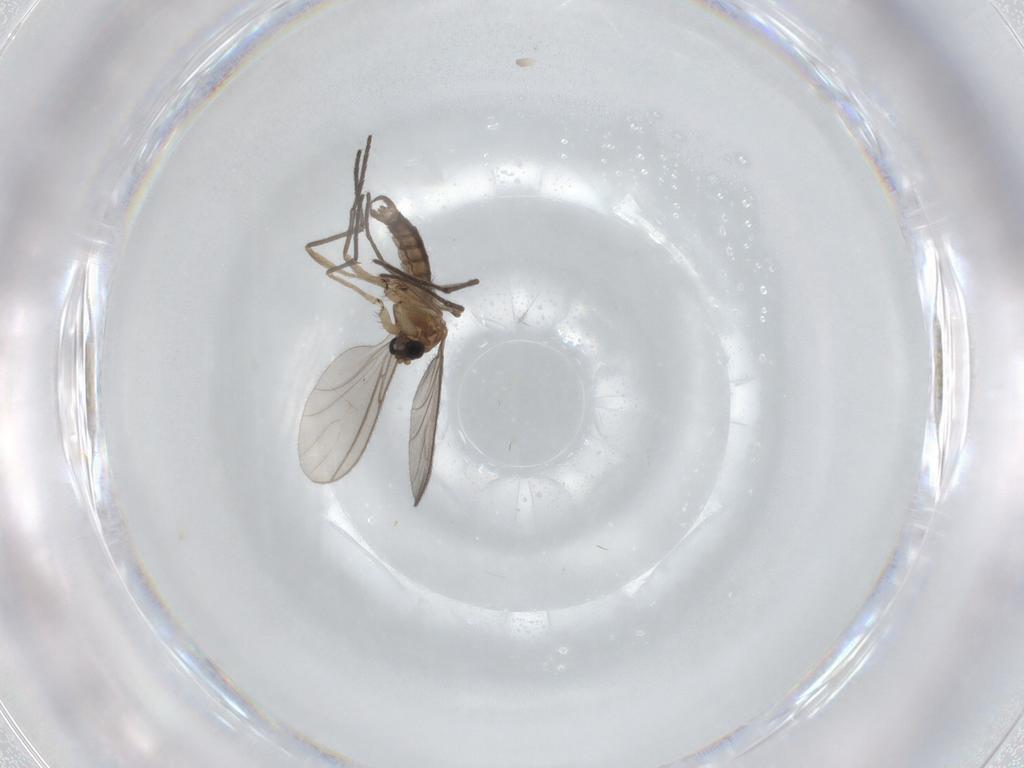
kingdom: Animalia
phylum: Arthropoda
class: Insecta
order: Diptera
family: Sciaridae
